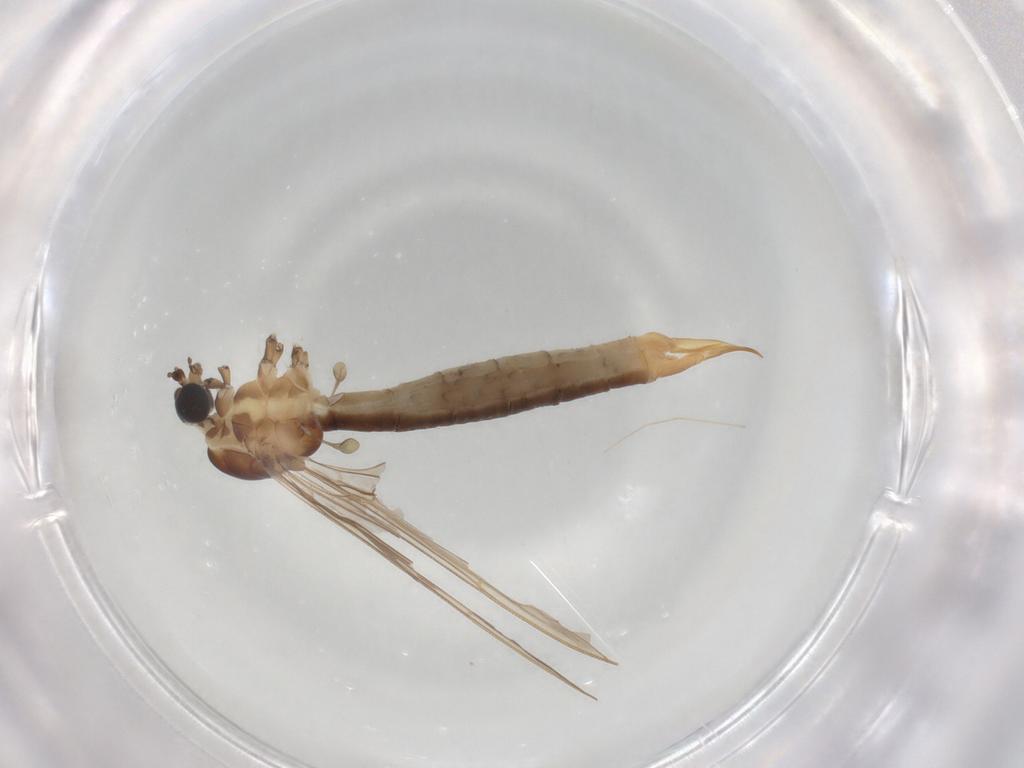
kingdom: Animalia
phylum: Arthropoda
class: Insecta
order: Diptera
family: Limoniidae
